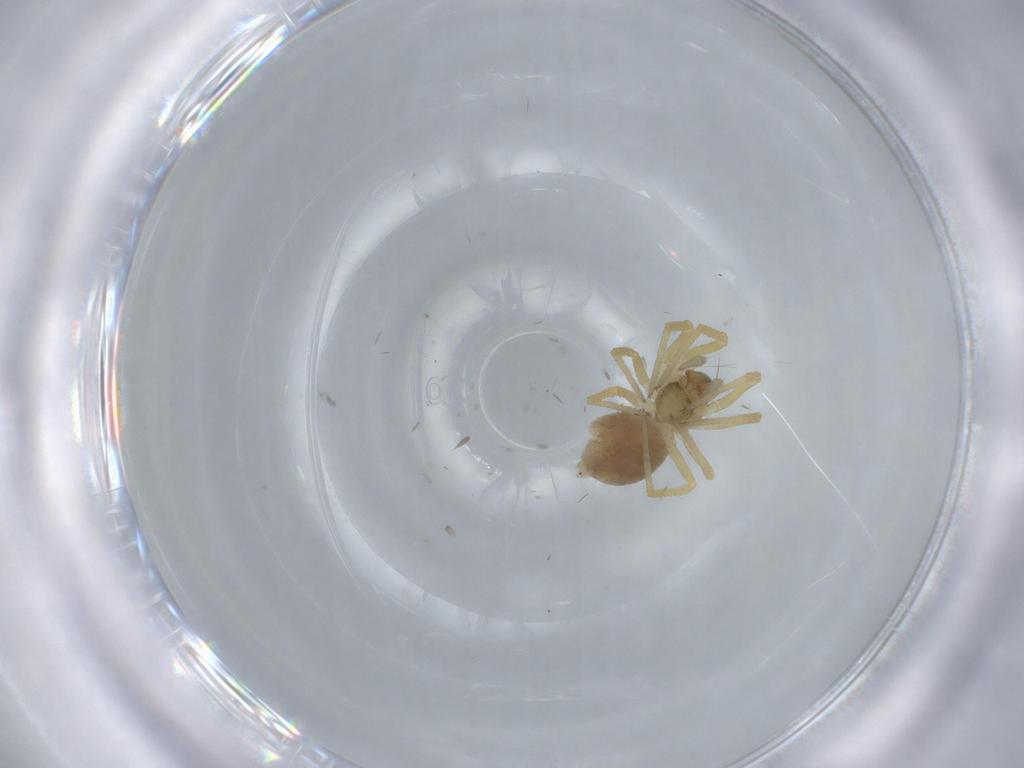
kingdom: Animalia
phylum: Arthropoda
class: Arachnida
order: Araneae
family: Linyphiidae
